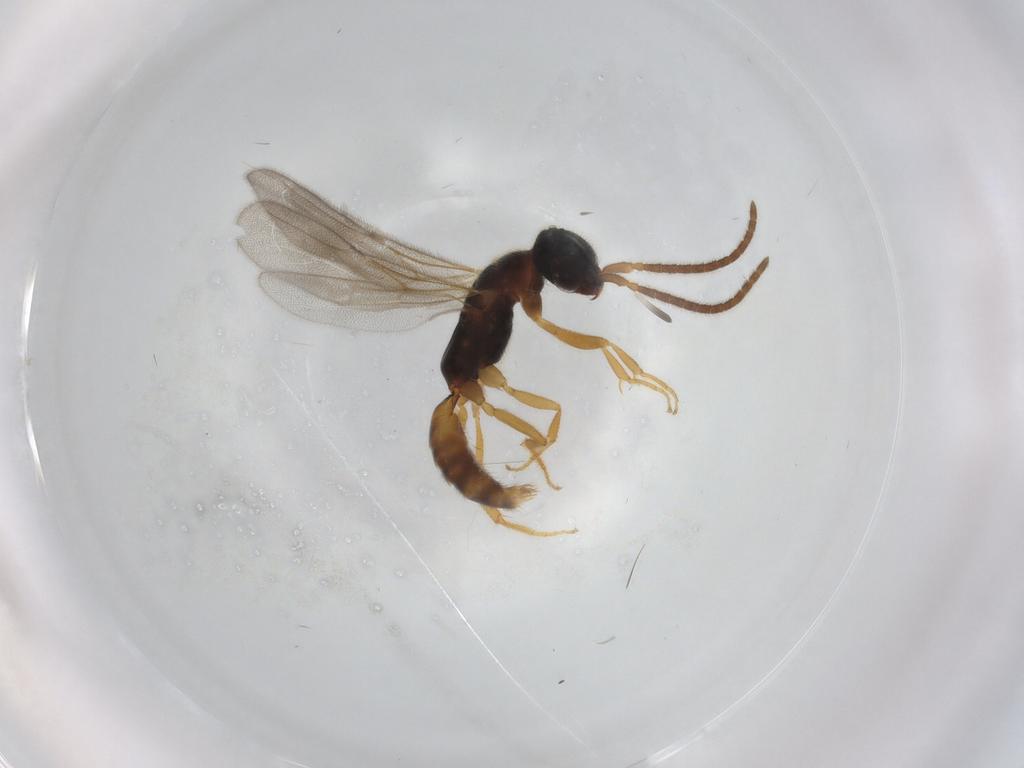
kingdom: Animalia
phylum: Arthropoda
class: Insecta
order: Hymenoptera
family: Bethylidae
